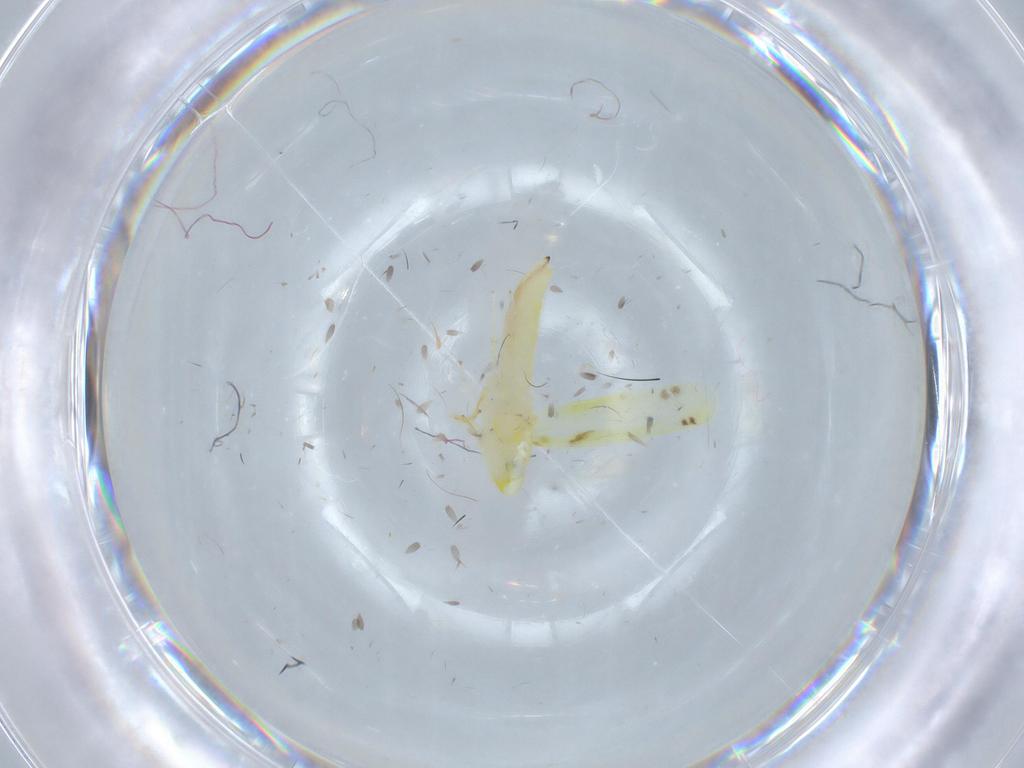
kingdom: Animalia
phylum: Arthropoda
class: Insecta
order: Hemiptera
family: Cicadellidae
